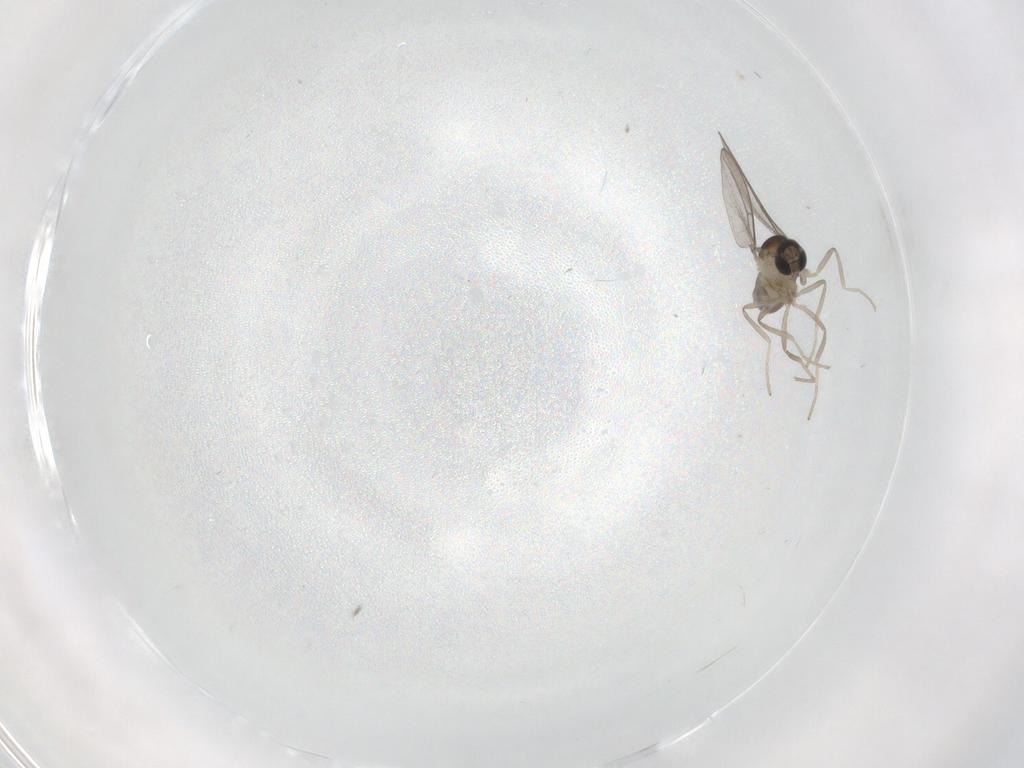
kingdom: Animalia
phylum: Arthropoda
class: Insecta
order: Diptera
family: Cecidomyiidae
